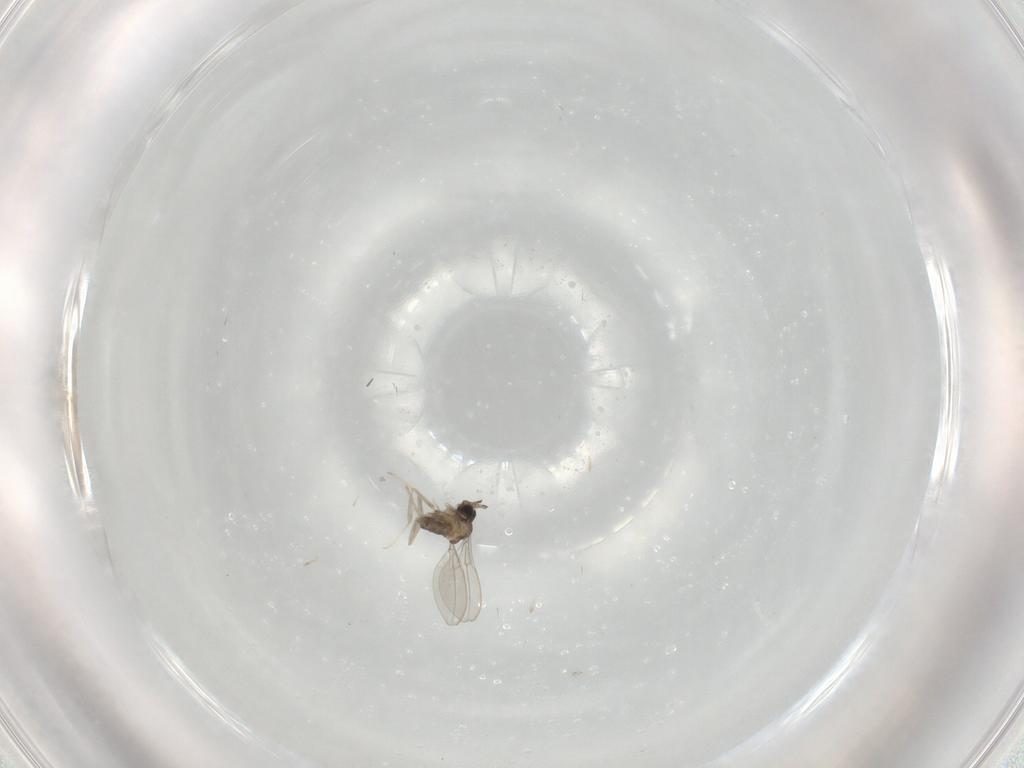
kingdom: Animalia
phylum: Arthropoda
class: Insecta
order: Diptera
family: Cecidomyiidae
